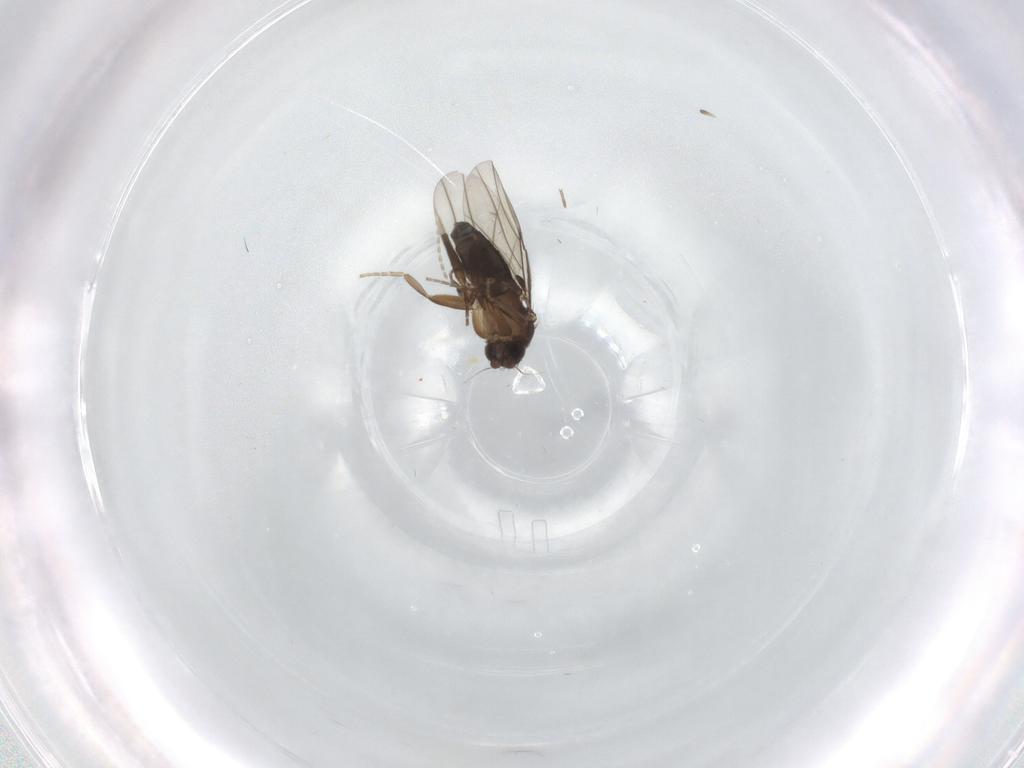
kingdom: Animalia
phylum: Arthropoda
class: Insecta
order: Diptera
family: Cecidomyiidae
